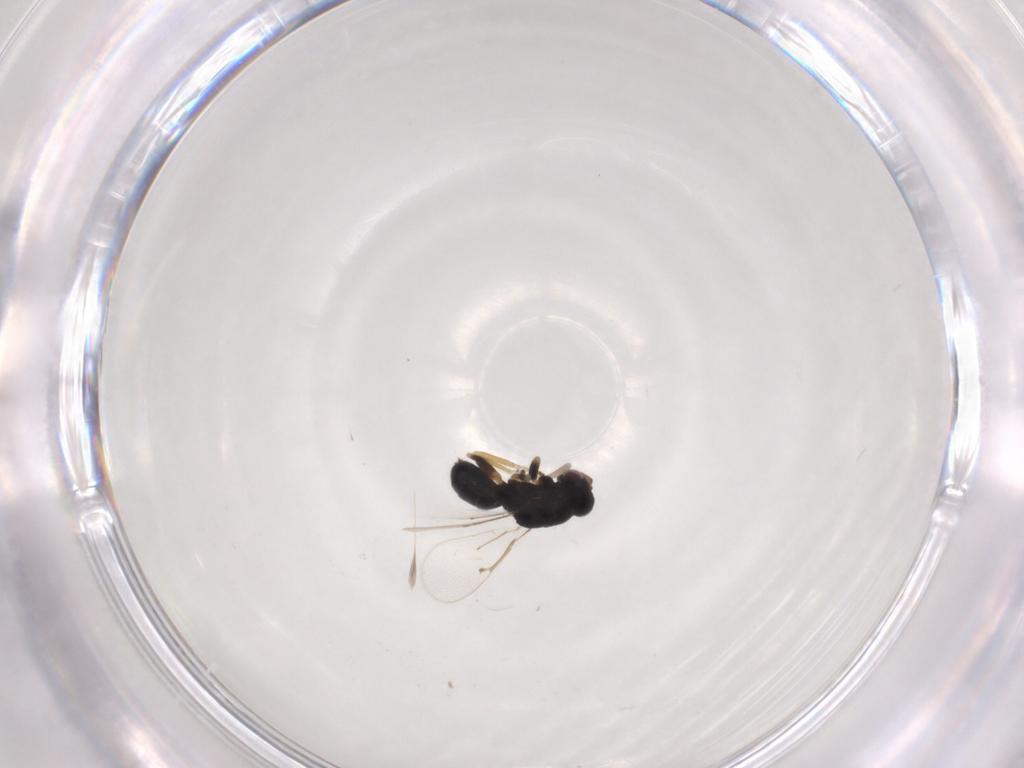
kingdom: Animalia
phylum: Arthropoda
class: Insecta
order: Hymenoptera
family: Eulophidae
